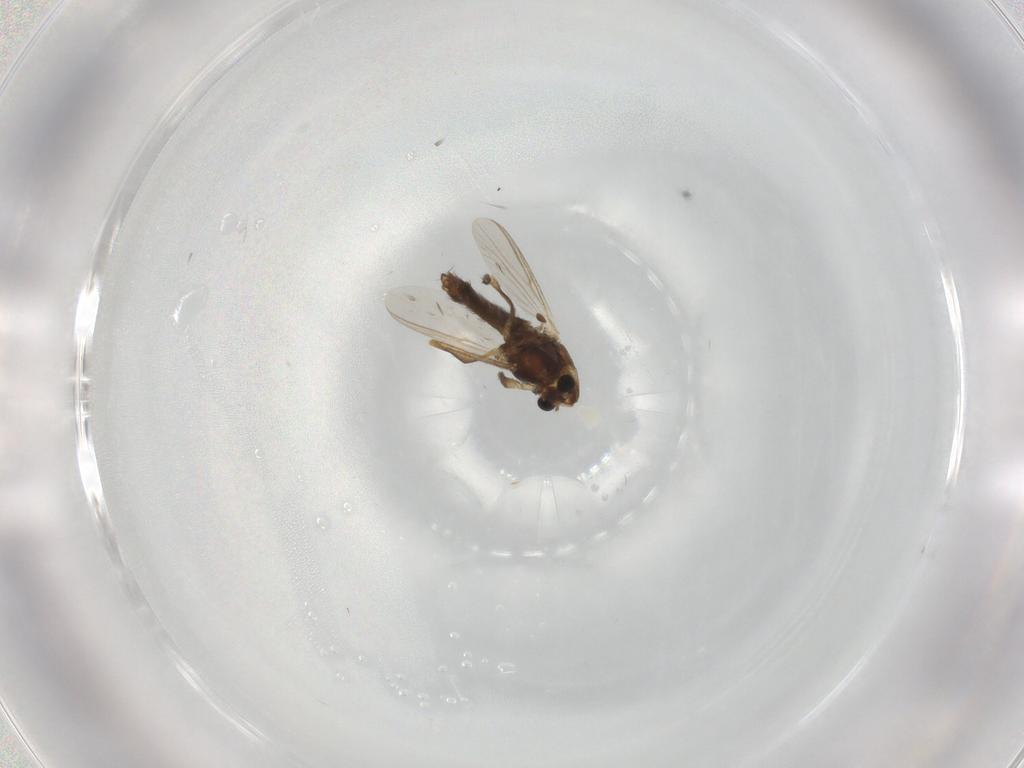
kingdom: Animalia
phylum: Arthropoda
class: Insecta
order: Diptera
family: Dolichopodidae
